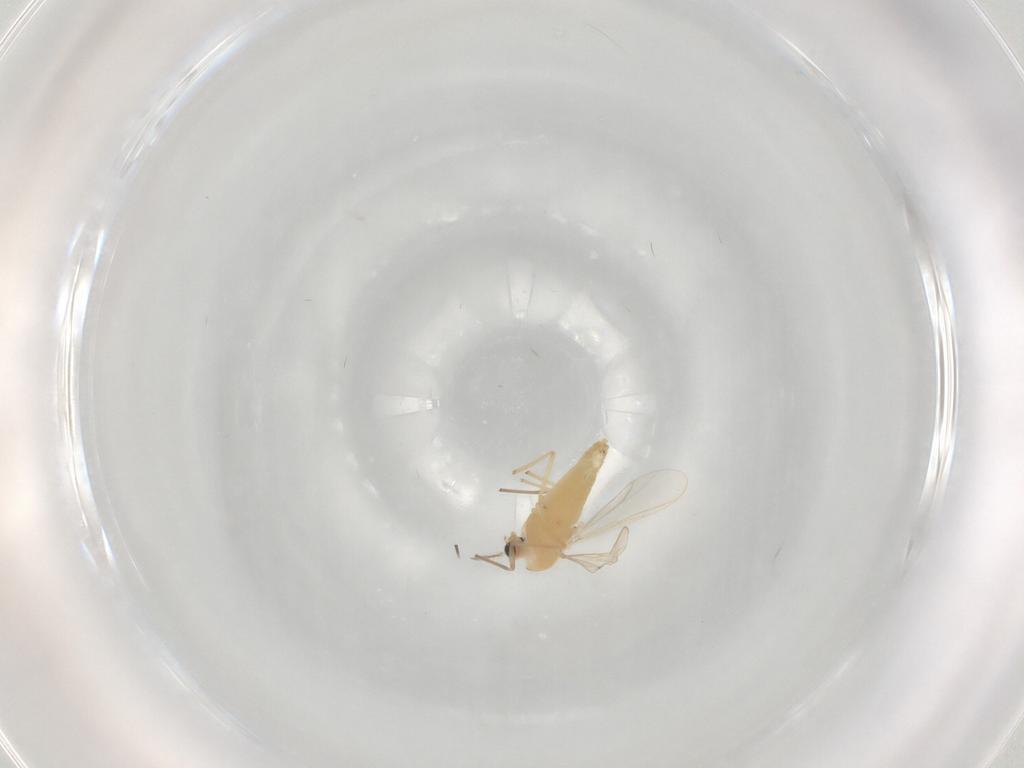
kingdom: Animalia
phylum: Arthropoda
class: Insecta
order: Diptera
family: Chironomidae
